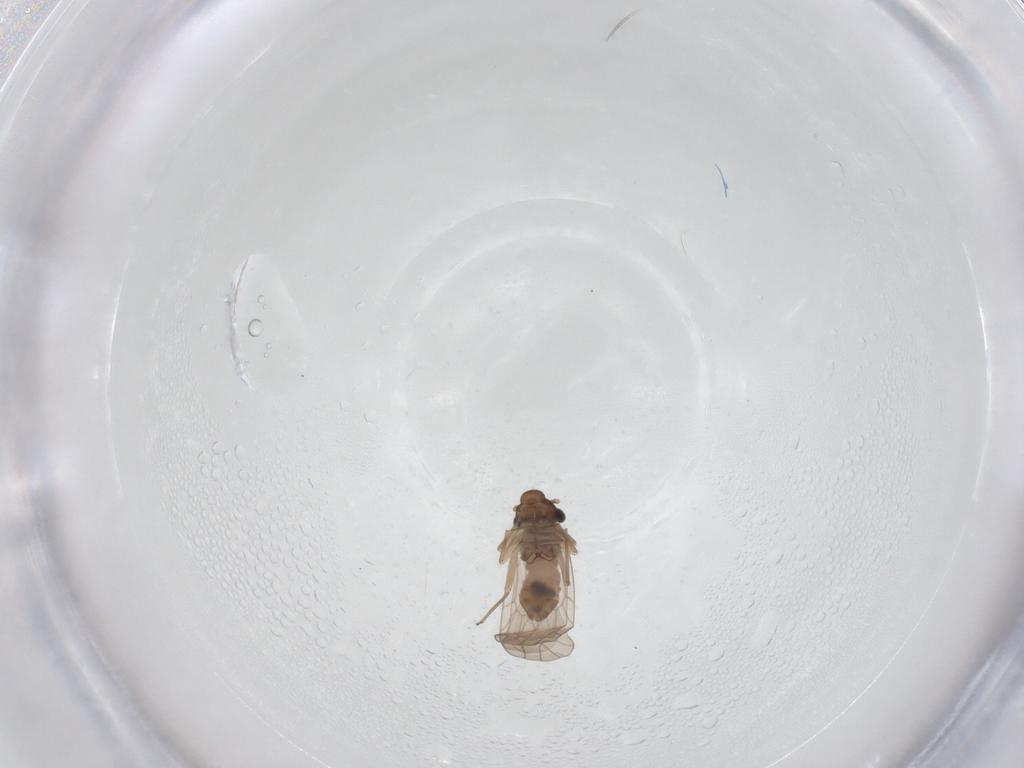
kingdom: Animalia
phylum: Arthropoda
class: Insecta
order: Psocodea
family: Lepidopsocidae
